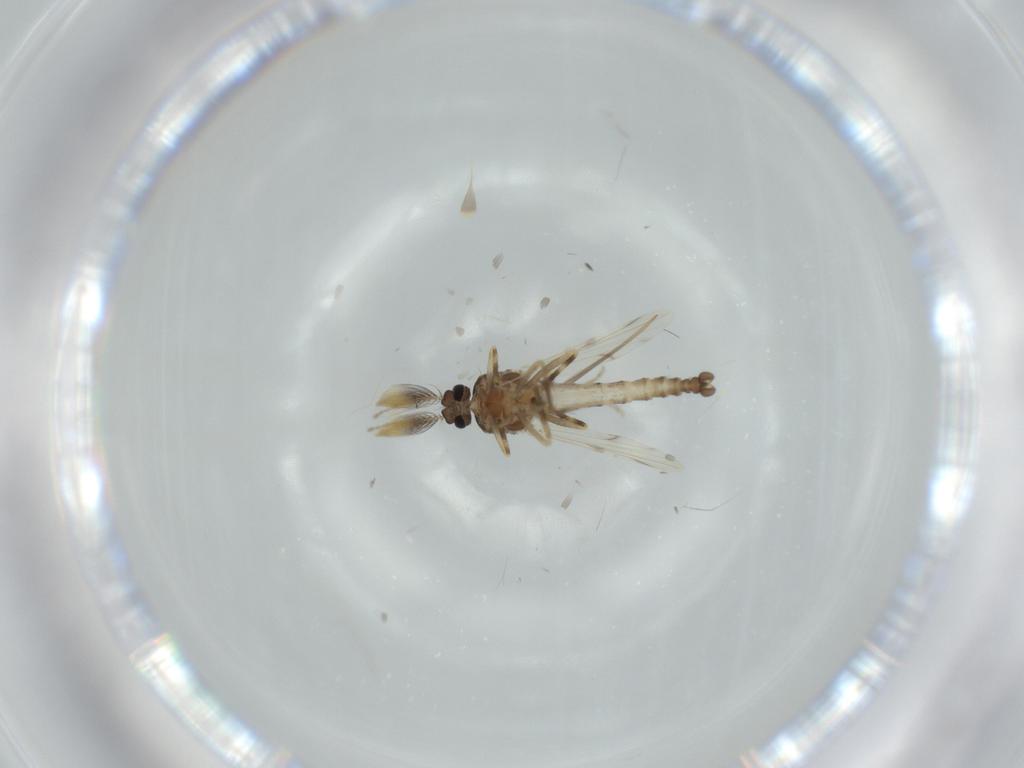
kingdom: Animalia
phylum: Arthropoda
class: Insecta
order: Diptera
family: Ceratopogonidae
